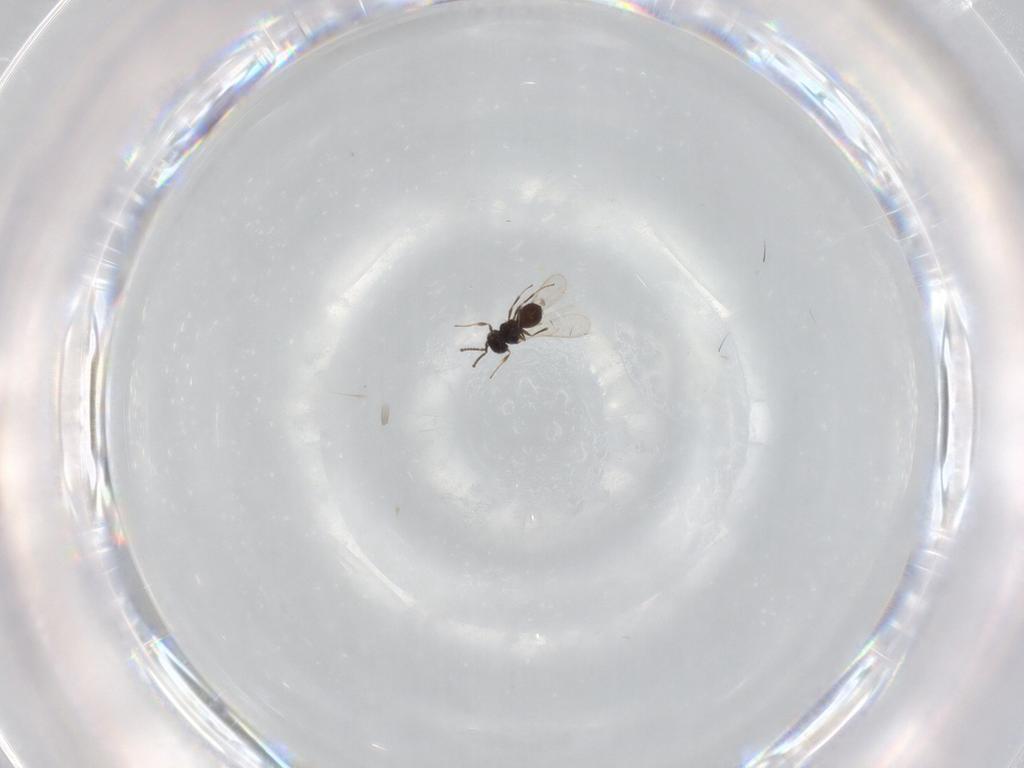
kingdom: Animalia
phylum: Arthropoda
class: Insecta
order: Hymenoptera
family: Scelionidae
